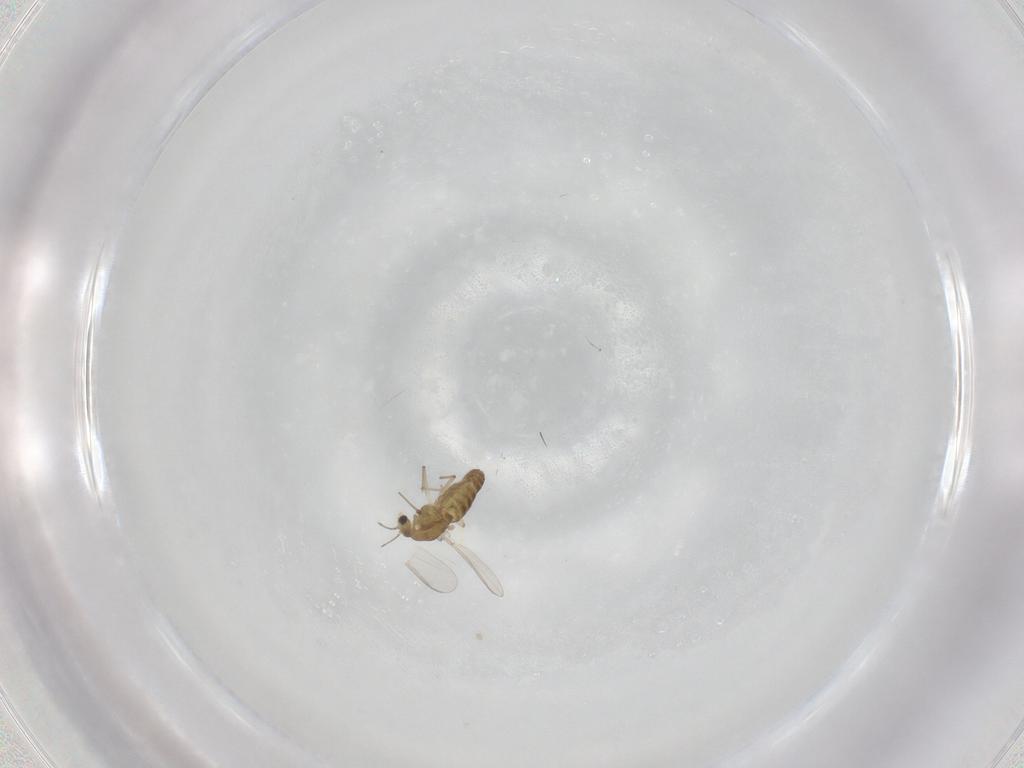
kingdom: Animalia
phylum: Arthropoda
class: Insecta
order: Diptera
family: Chironomidae
